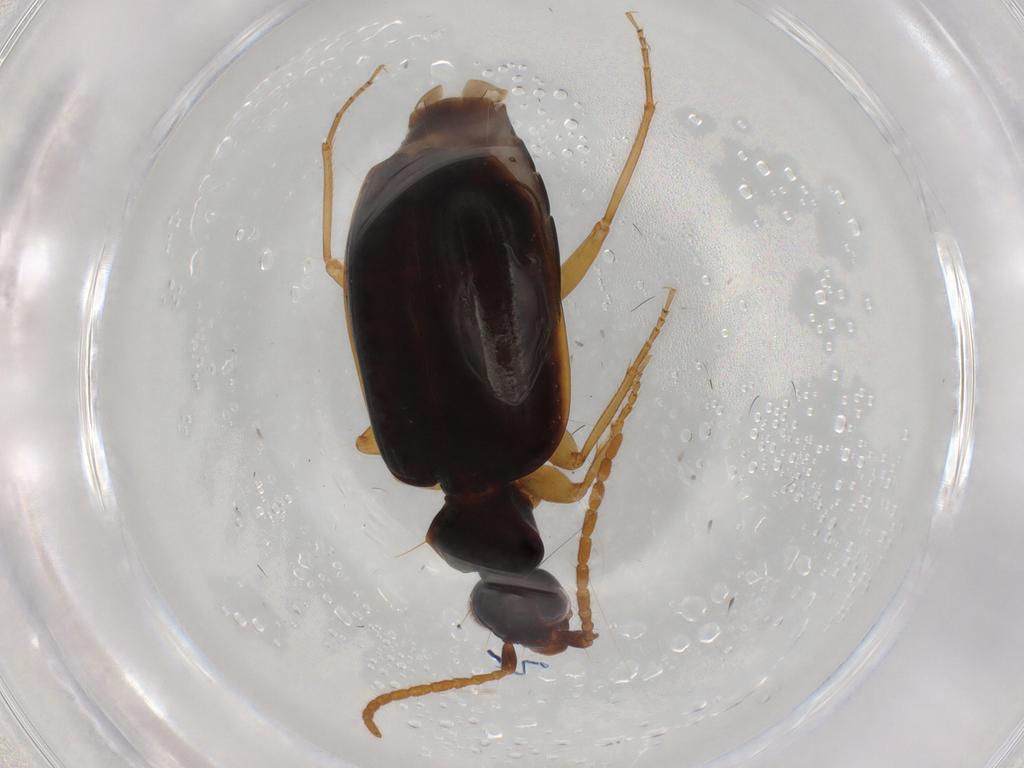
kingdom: Animalia
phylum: Arthropoda
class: Insecta
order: Coleoptera
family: Carabidae
